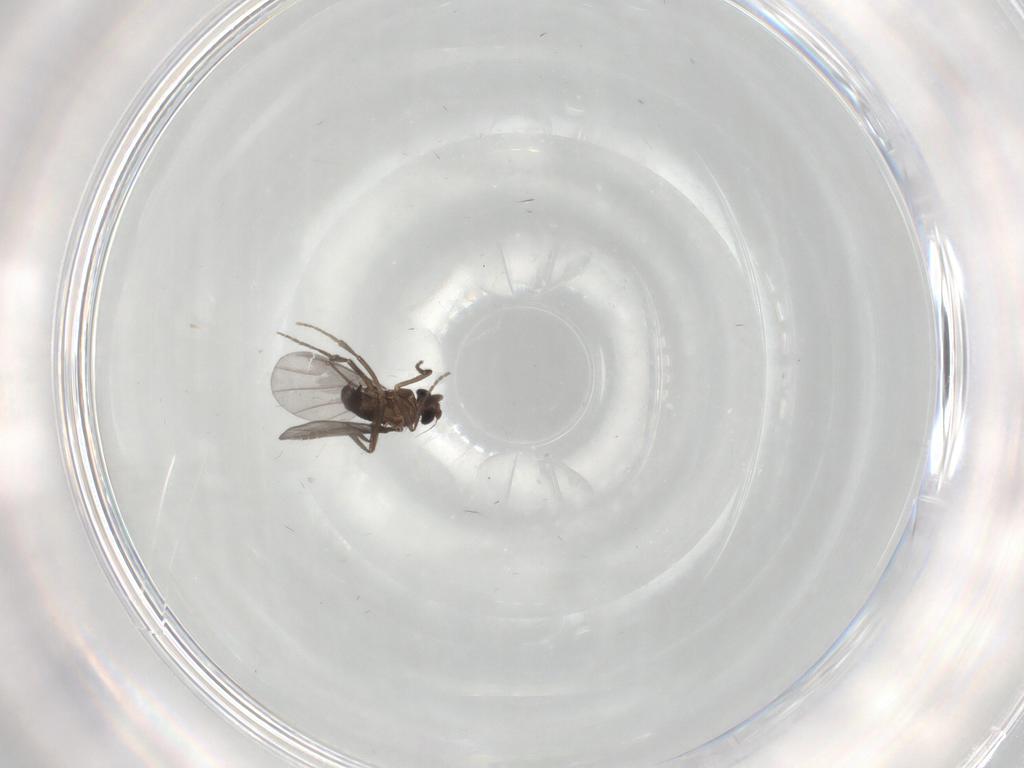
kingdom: Animalia
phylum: Arthropoda
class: Insecta
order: Diptera
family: Phoridae
